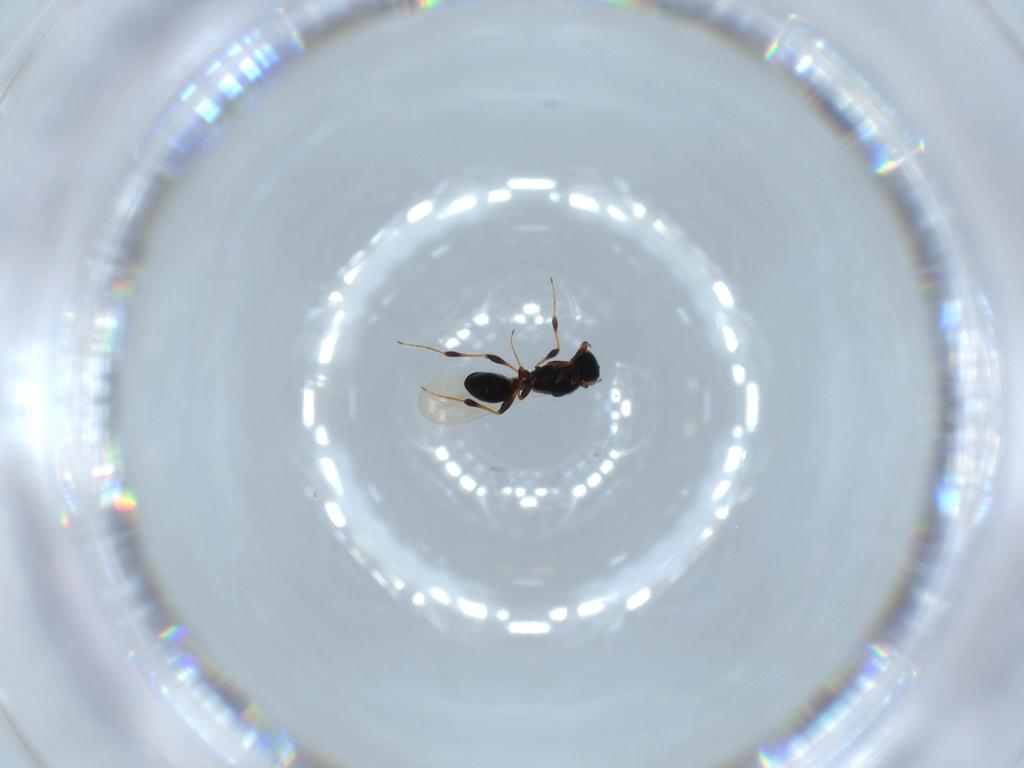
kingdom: Animalia
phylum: Arthropoda
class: Insecta
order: Hymenoptera
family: Platygastridae
